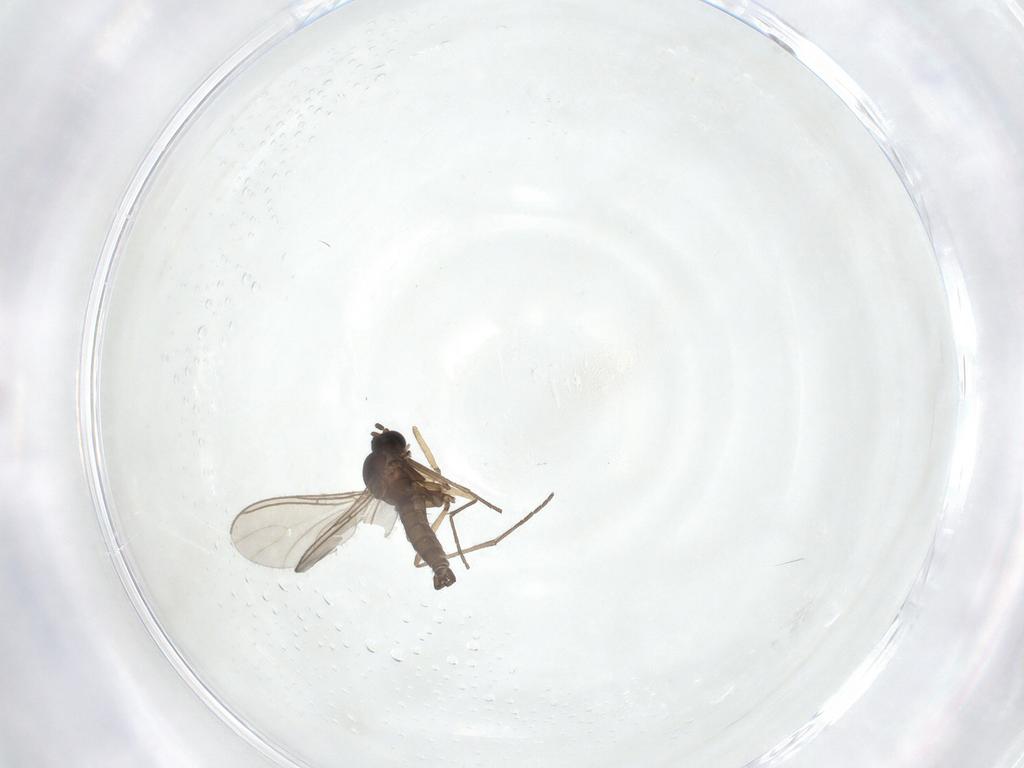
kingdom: Animalia
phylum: Arthropoda
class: Insecta
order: Diptera
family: Sciaridae
